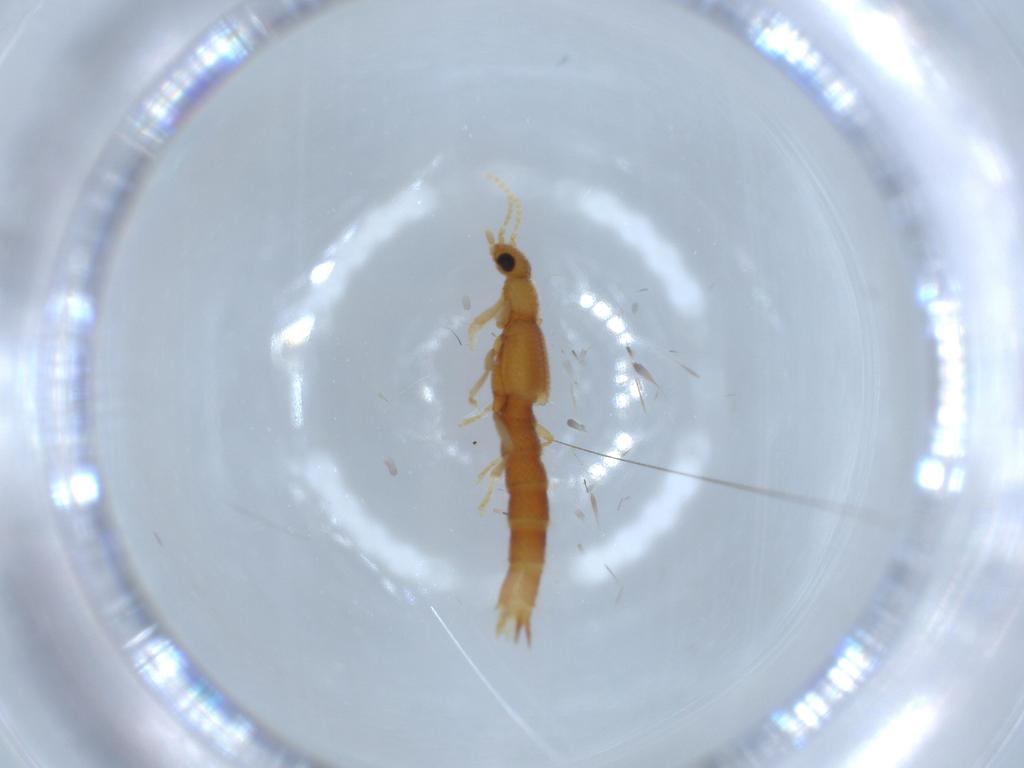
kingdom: Animalia
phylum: Arthropoda
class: Insecta
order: Coleoptera
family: Staphylinidae
